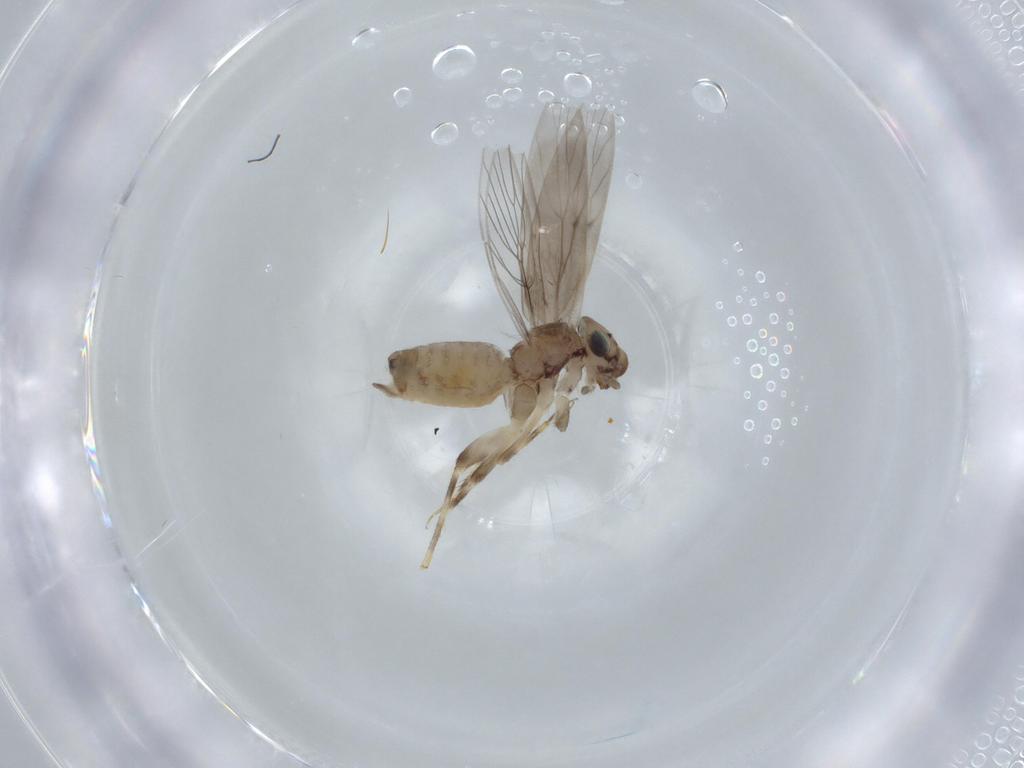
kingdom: Animalia
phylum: Arthropoda
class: Insecta
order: Psocodea
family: Lepidopsocidae
